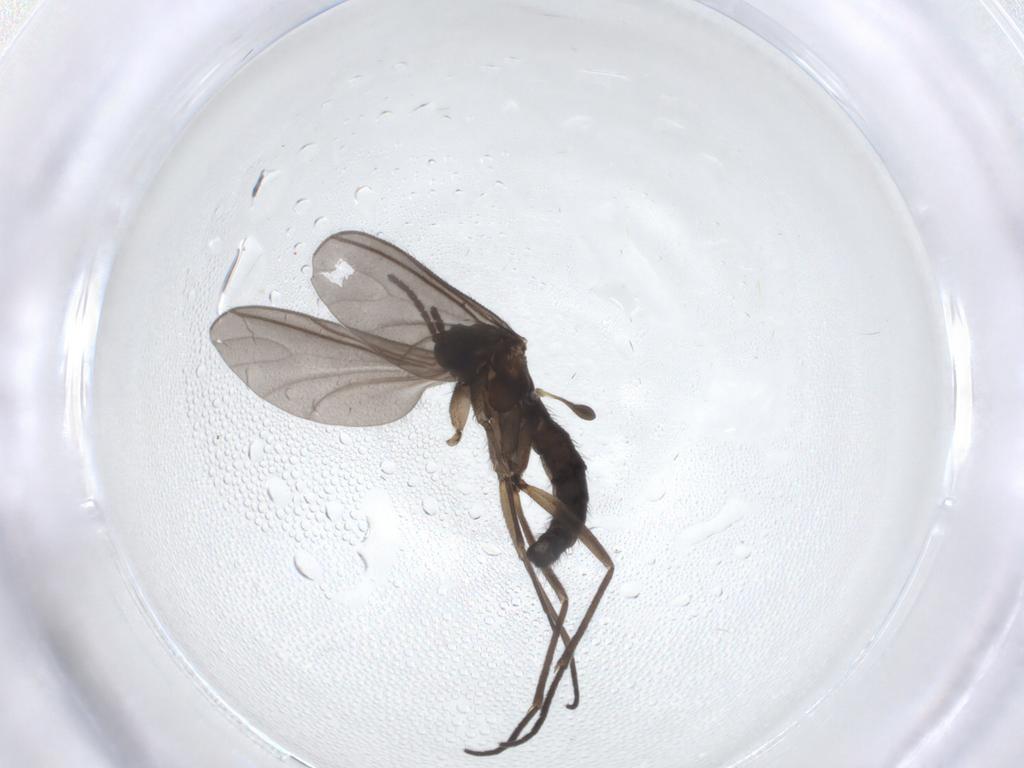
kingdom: Animalia
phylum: Arthropoda
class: Insecta
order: Diptera
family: Sciaridae
